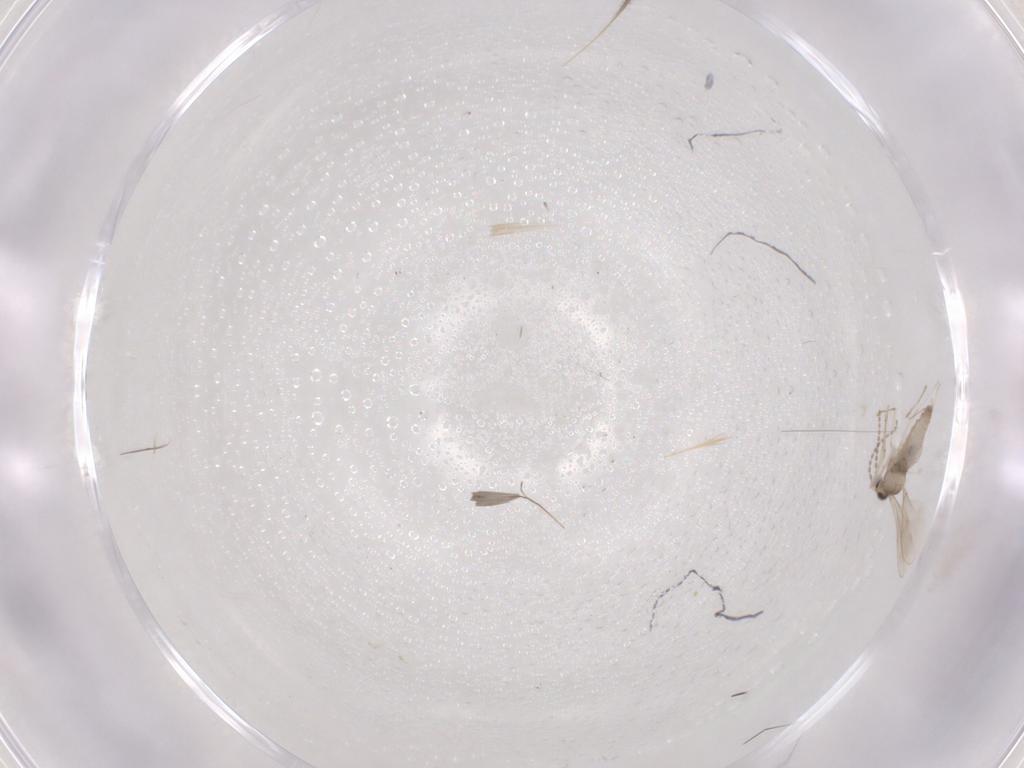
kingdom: Animalia
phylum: Arthropoda
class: Insecta
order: Diptera
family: Cecidomyiidae
